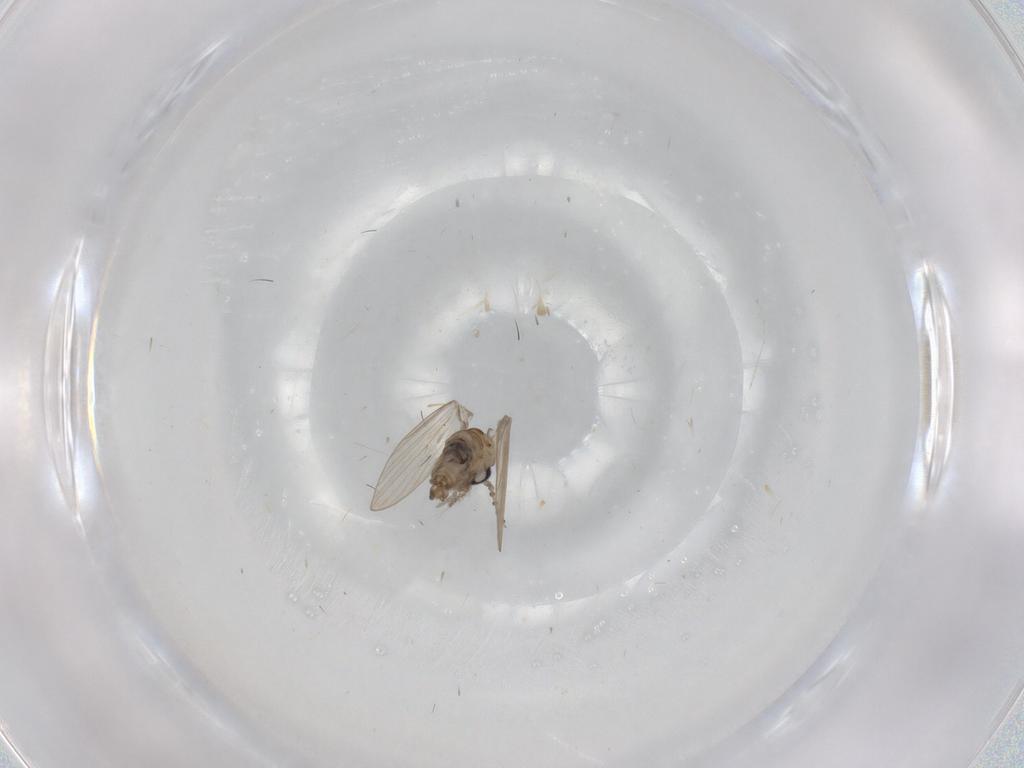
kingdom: Animalia
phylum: Arthropoda
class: Insecta
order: Diptera
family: Psychodidae
